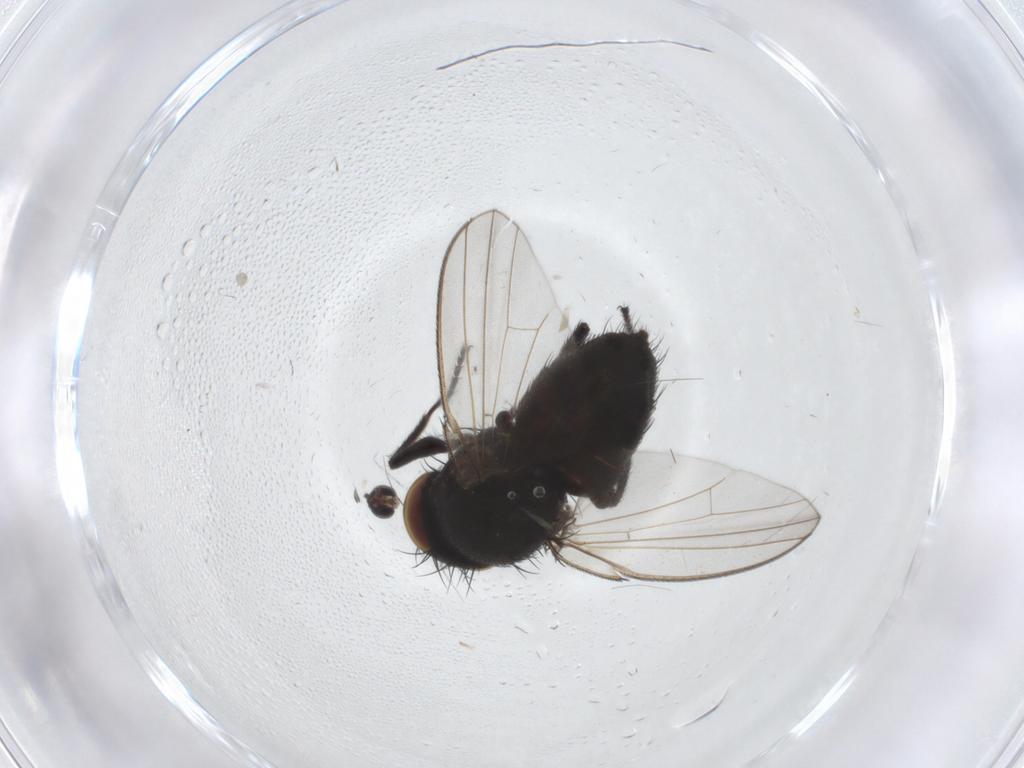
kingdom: Animalia
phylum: Arthropoda
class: Insecta
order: Diptera
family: Milichiidae
